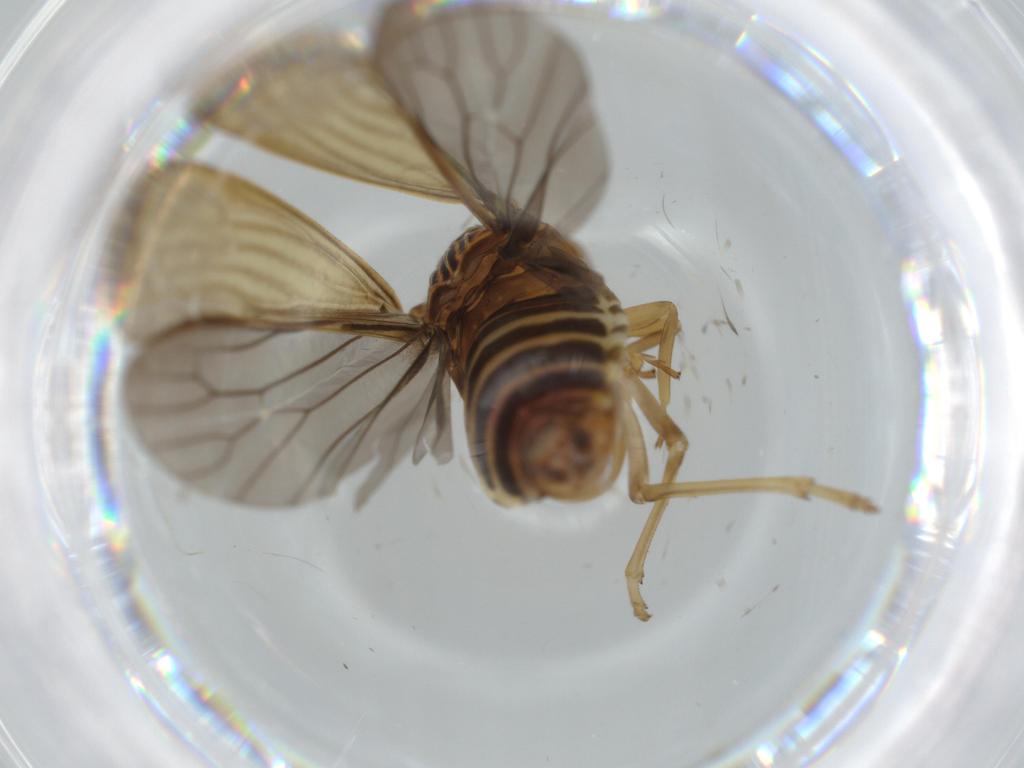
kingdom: Animalia
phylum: Arthropoda
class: Insecta
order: Hemiptera
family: Achilidae
